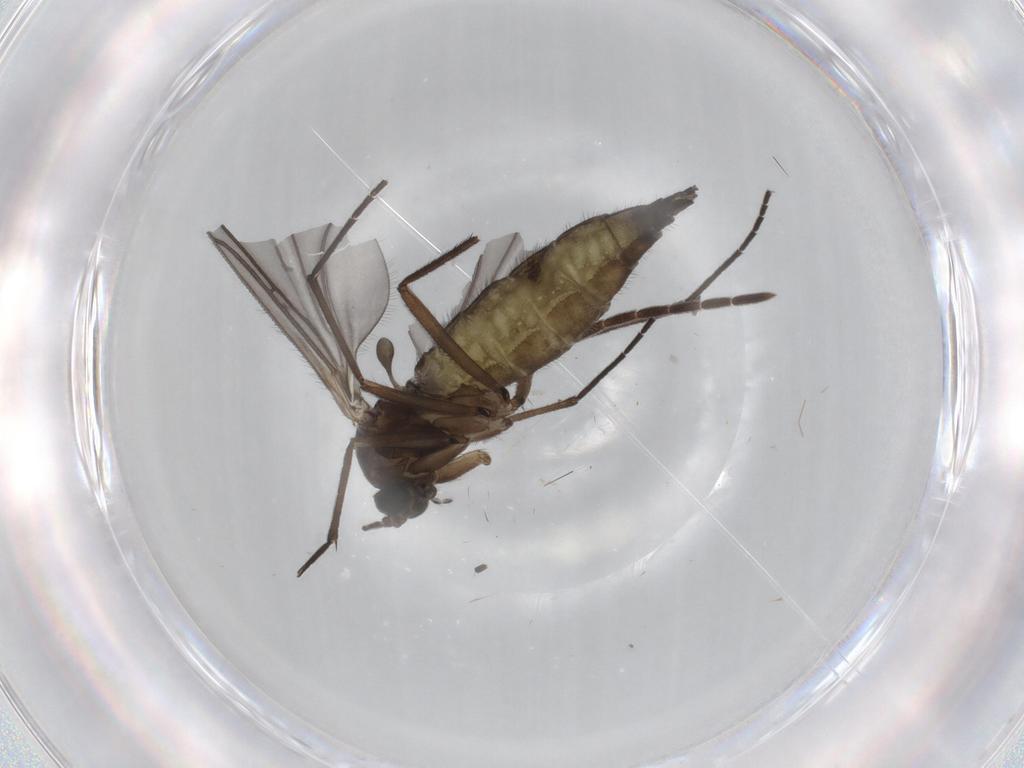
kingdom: Animalia
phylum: Arthropoda
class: Insecta
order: Diptera
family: Sciaridae
